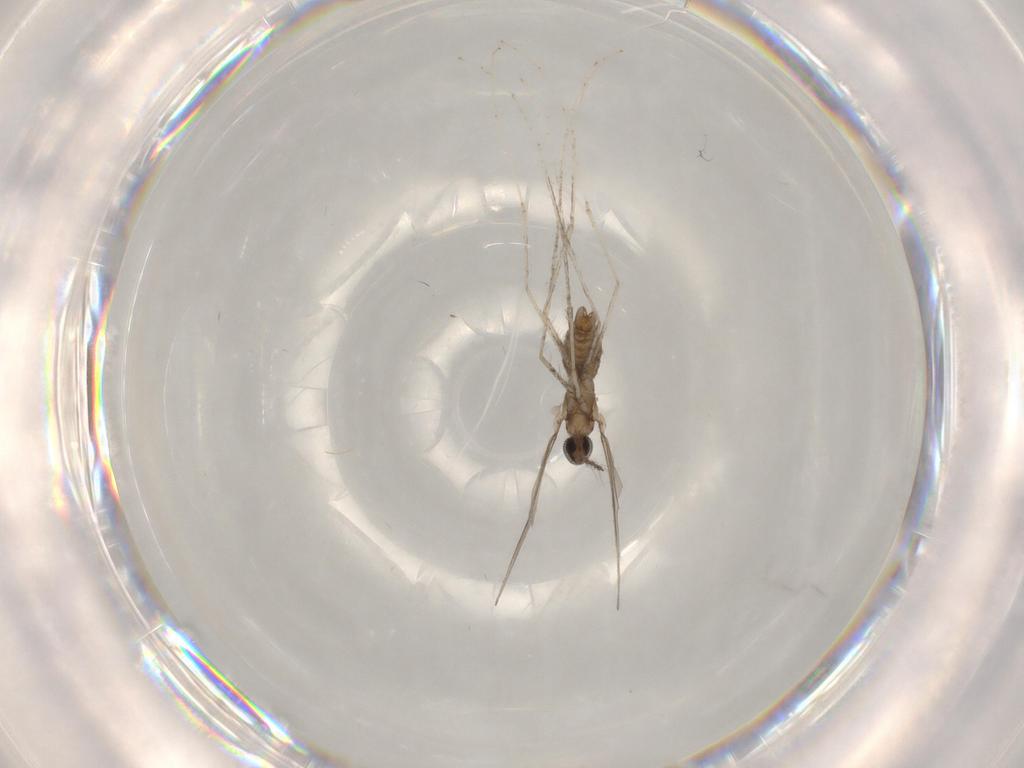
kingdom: Animalia
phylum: Arthropoda
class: Insecta
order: Diptera
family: Cecidomyiidae
